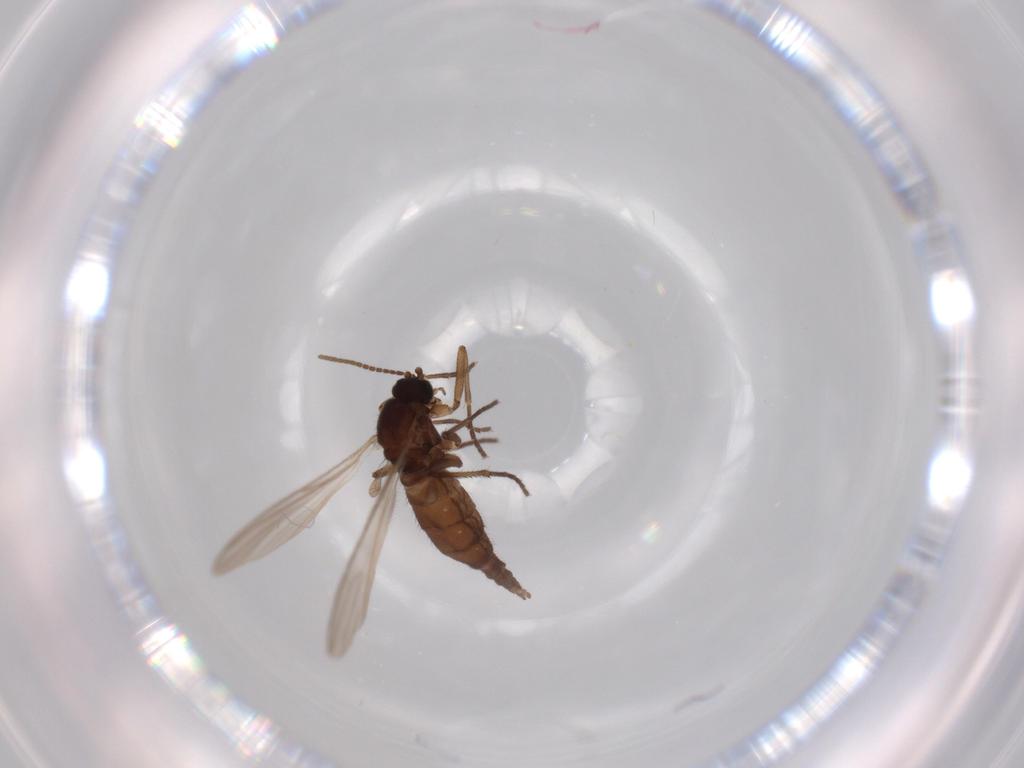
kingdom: Animalia
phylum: Arthropoda
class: Insecta
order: Diptera
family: Sciaridae
